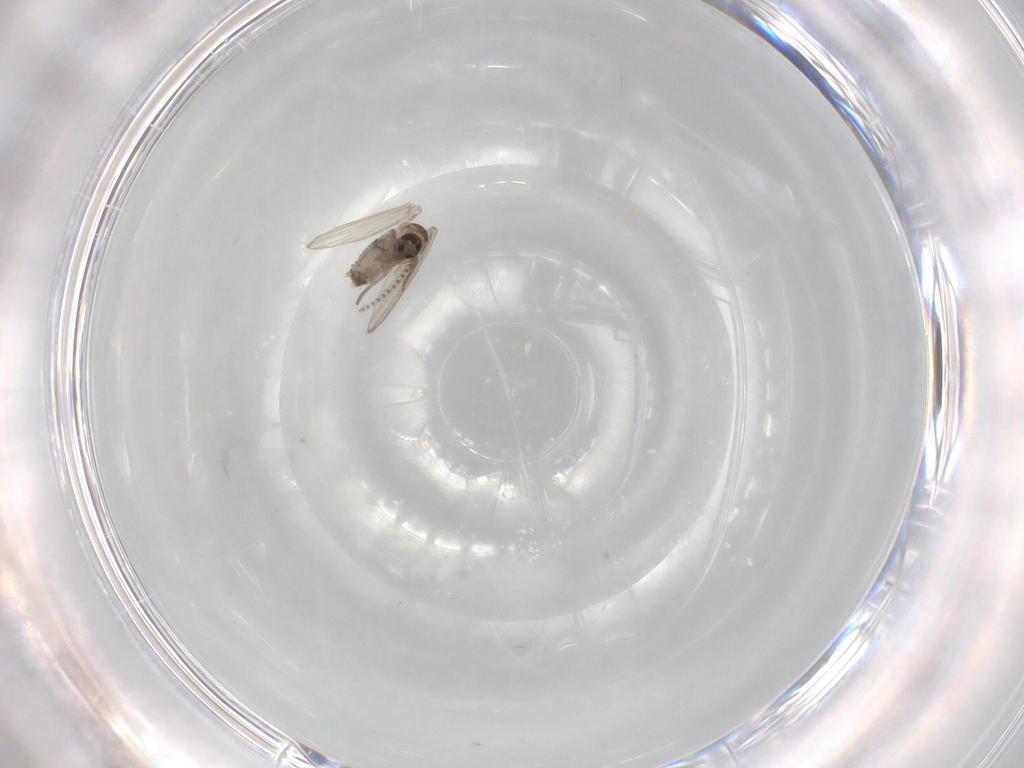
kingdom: Animalia
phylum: Arthropoda
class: Insecta
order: Diptera
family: Psychodidae
